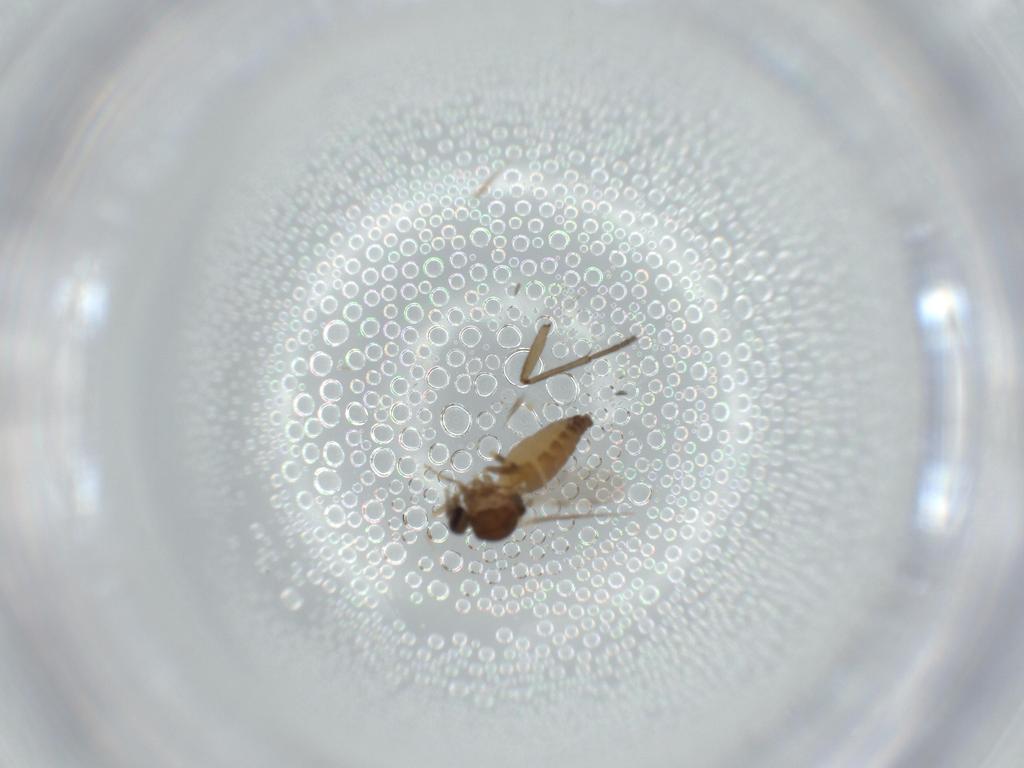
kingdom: Animalia
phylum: Arthropoda
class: Insecta
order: Diptera
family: Ceratopogonidae
